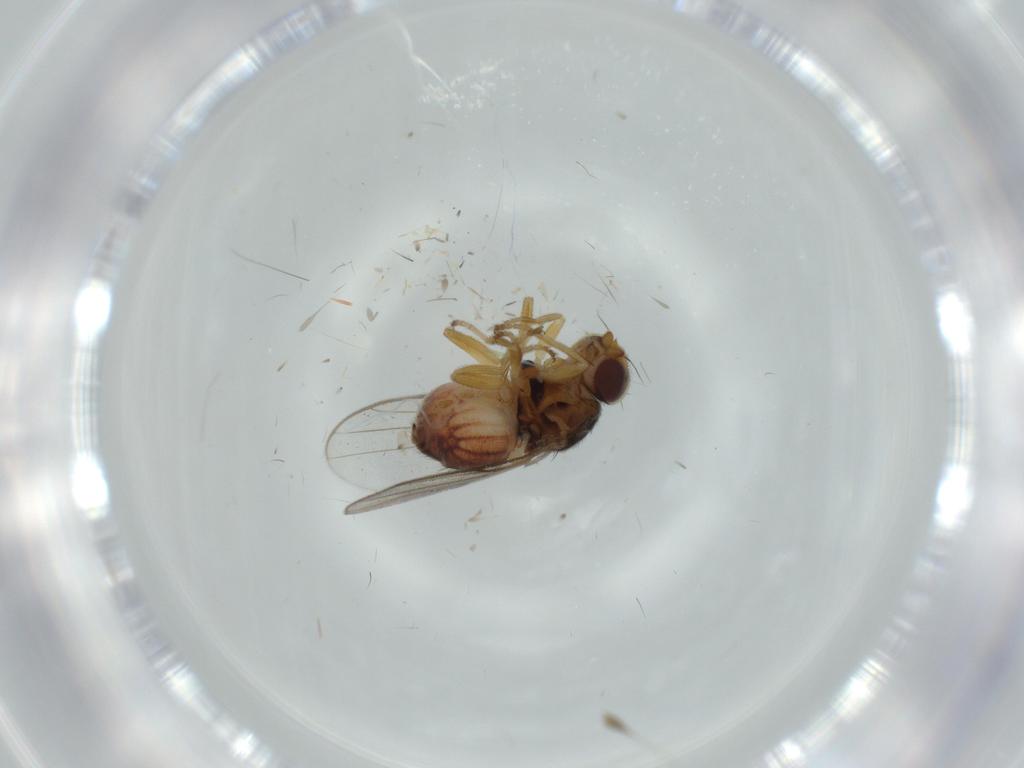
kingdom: Animalia
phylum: Arthropoda
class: Insecta
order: Diptera
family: Chloropidae
